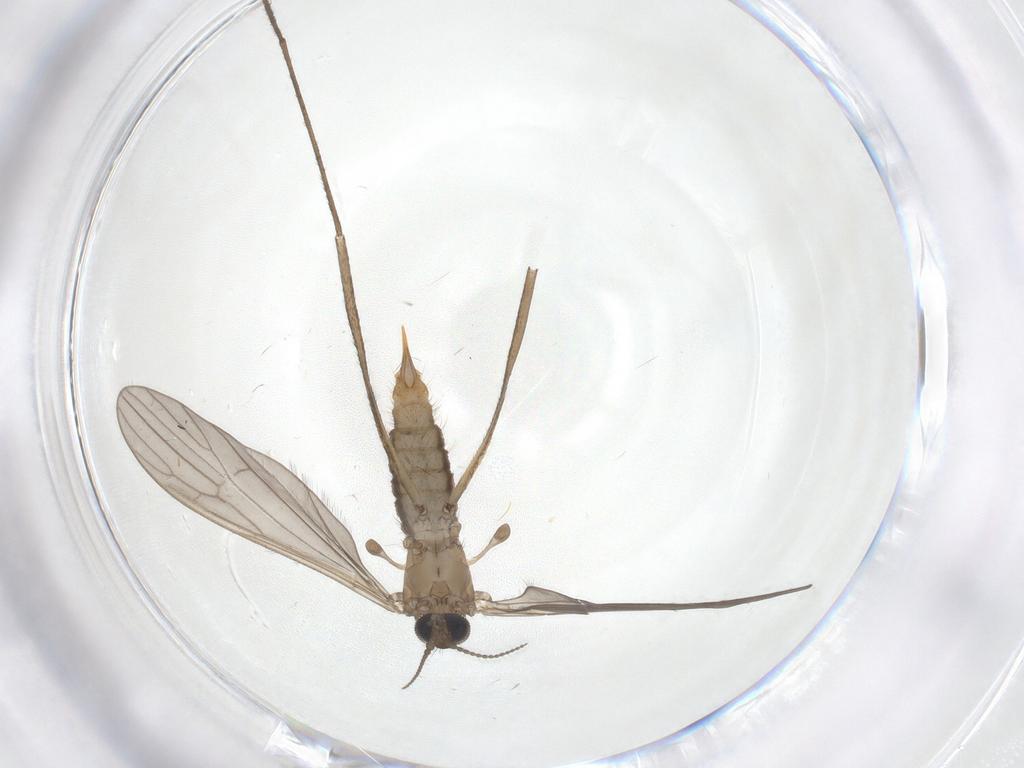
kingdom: Animalia
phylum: Arthropoda
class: Insecta
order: Diptera
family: Limoniidae
